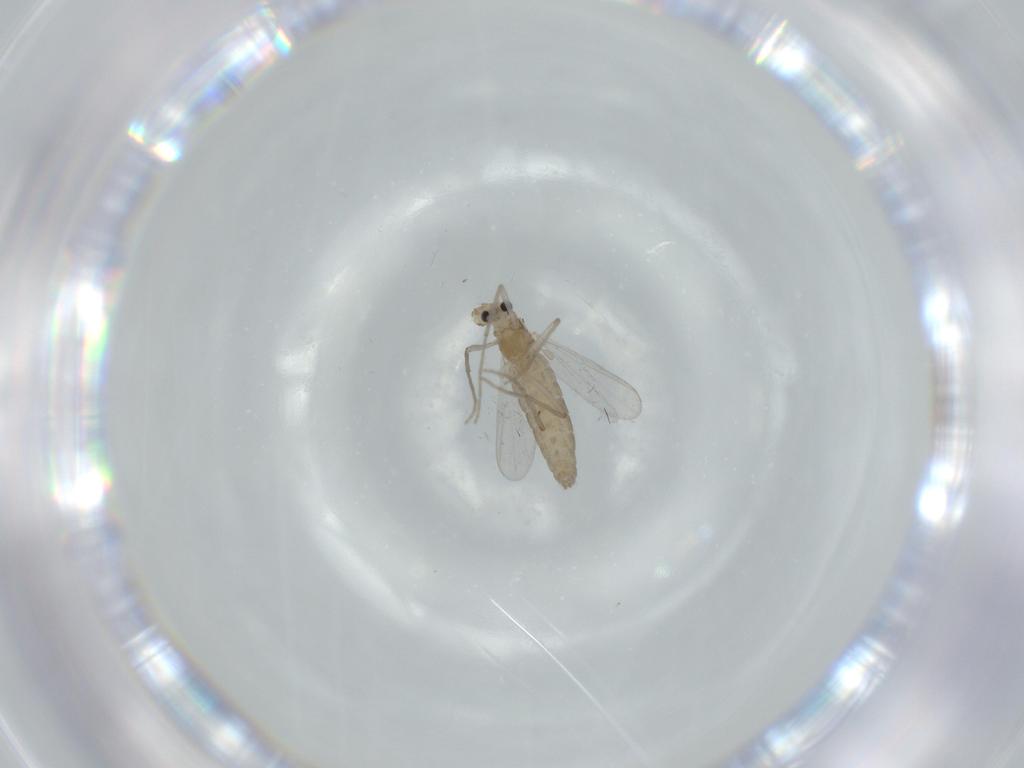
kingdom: Animalia
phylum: Arthropoda
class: Insecta
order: Diptera
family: Chironomidae
